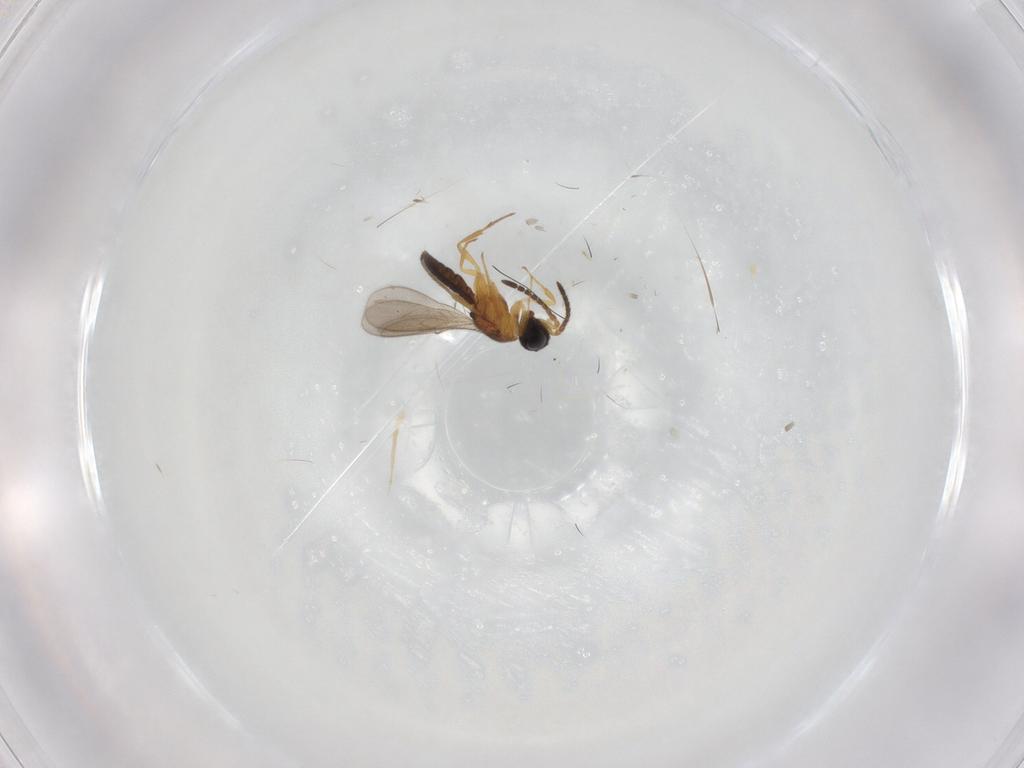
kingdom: Animalia
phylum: Arthropoda
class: Insecta
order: Hymenoptera
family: Scelionidae
